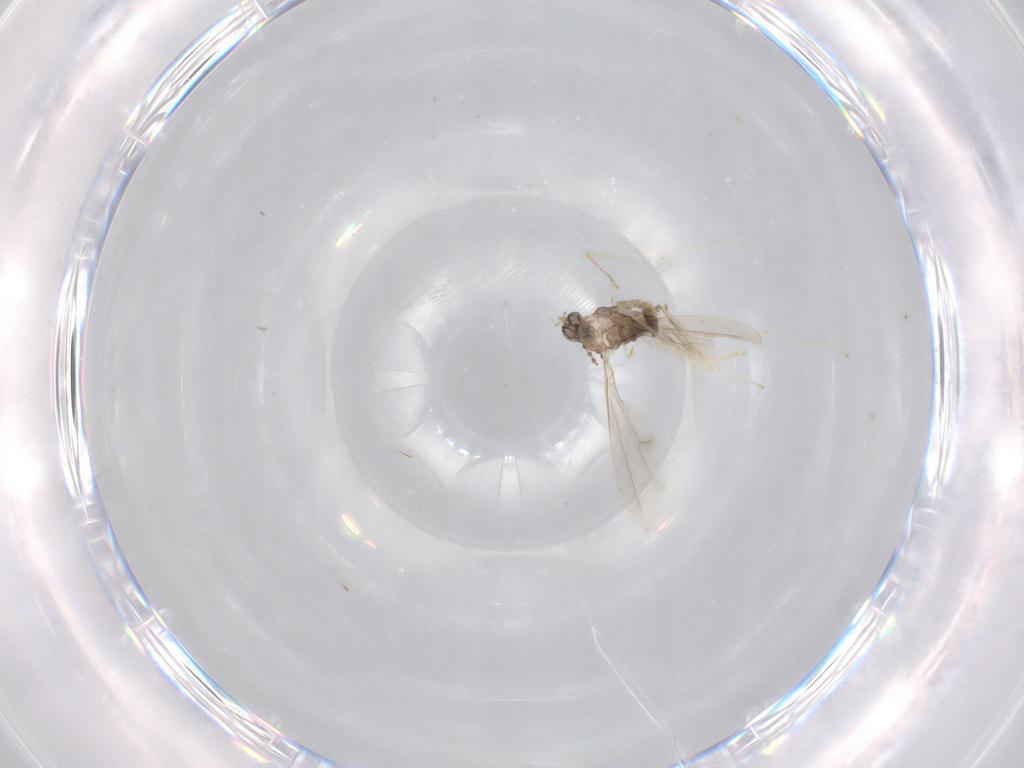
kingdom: Animalia
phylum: Arthropoda
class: Insecta
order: Diptera
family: Cecidomyiidae
